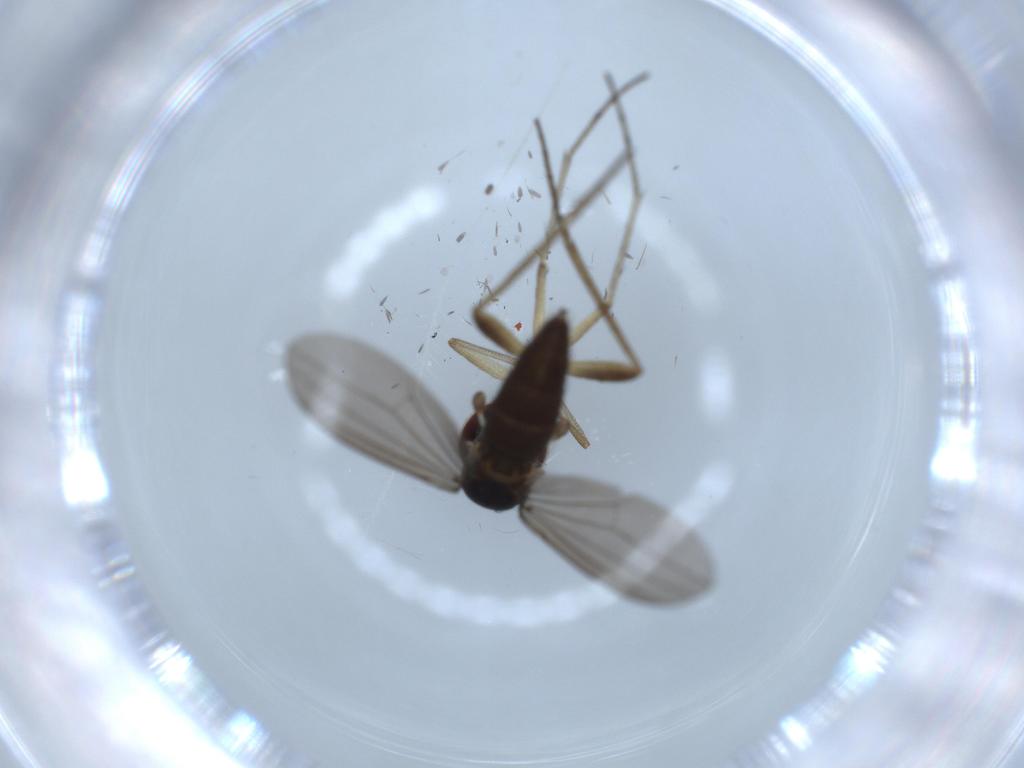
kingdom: Animalia
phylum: Arthropoda
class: Insecta
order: Diptera
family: Dolichopodidae
